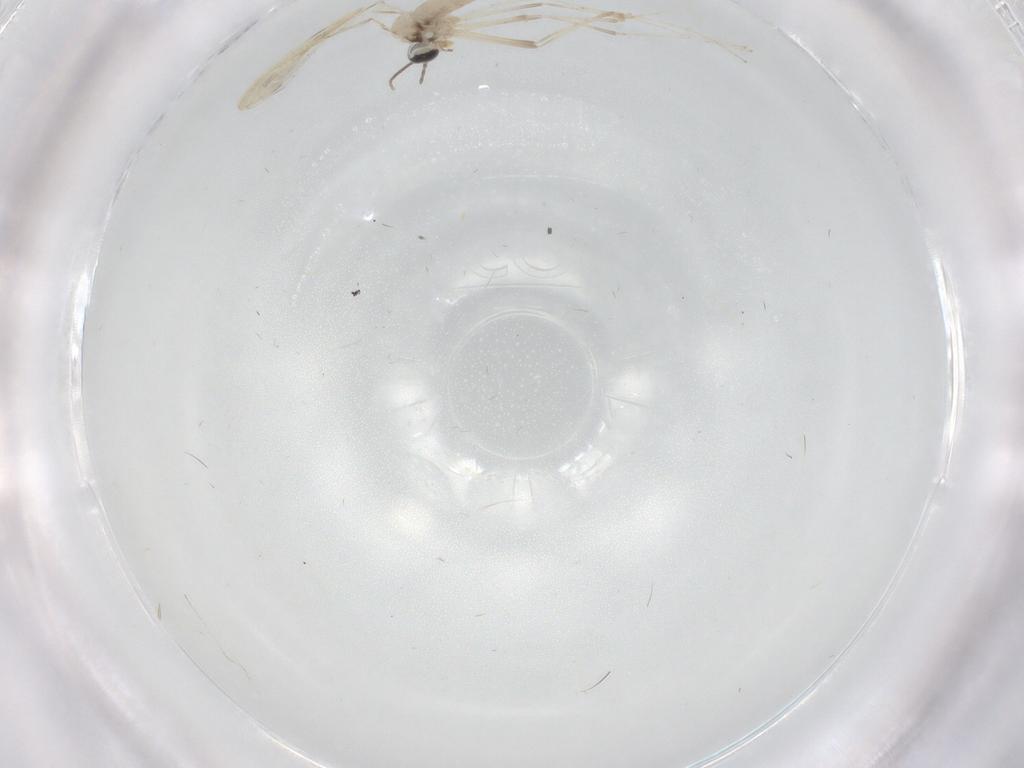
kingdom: Animalia
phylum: Arthropoda
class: Insecta
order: Diptera
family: Cecidomyiidae
